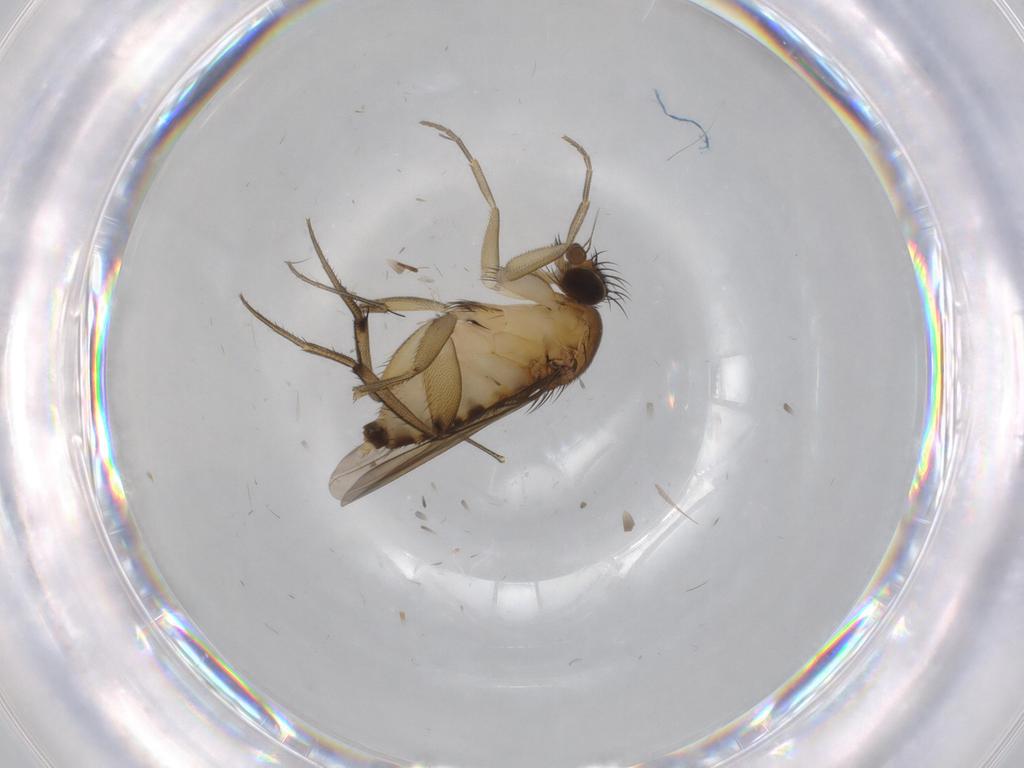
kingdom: Animalia
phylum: Arthropoda
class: Insecta
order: Diptera
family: Phoridae
